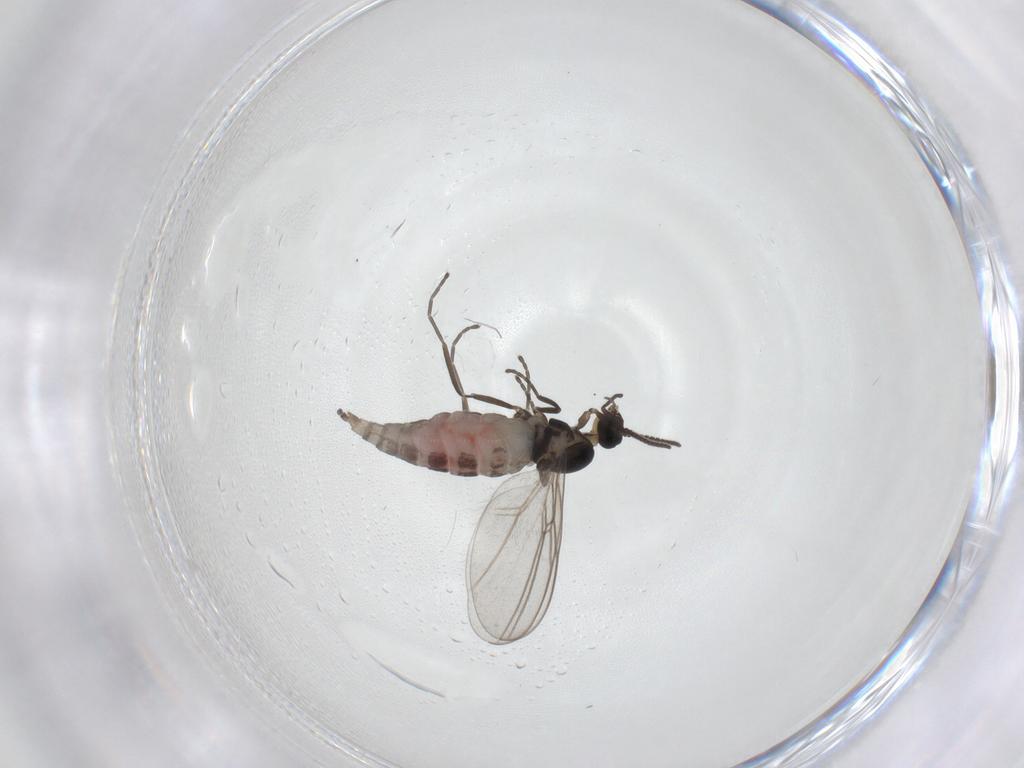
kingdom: Animalia
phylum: Arthropoda
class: Insecta
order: Diptera
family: Cecidomyiidae
